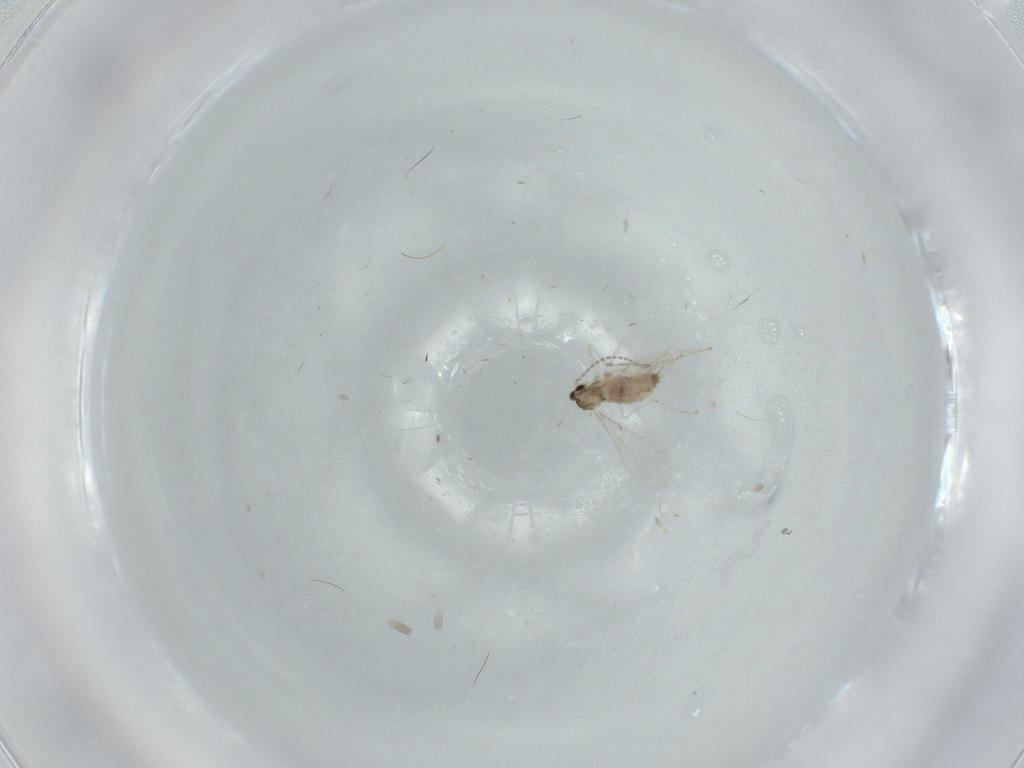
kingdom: Animalia
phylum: Arthropoda
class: Insecta
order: Diptera
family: Cecidomyiidae
